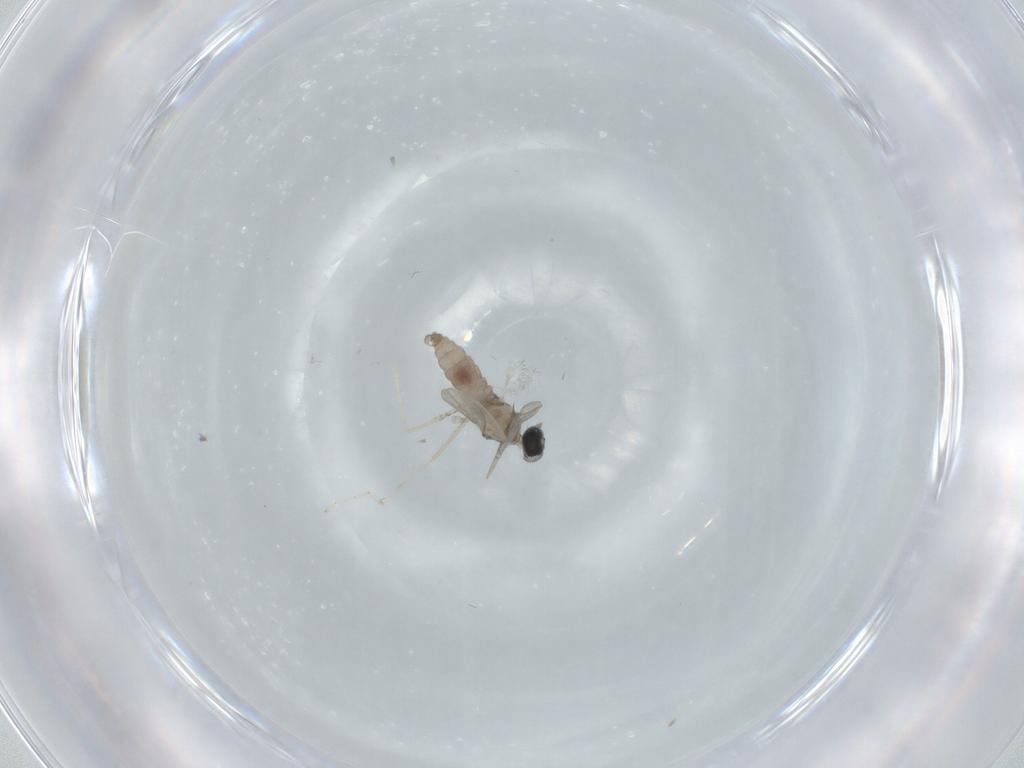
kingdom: Animalia
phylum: Arthropoda
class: Insecta
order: Diptera
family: Cecidomyiidae
